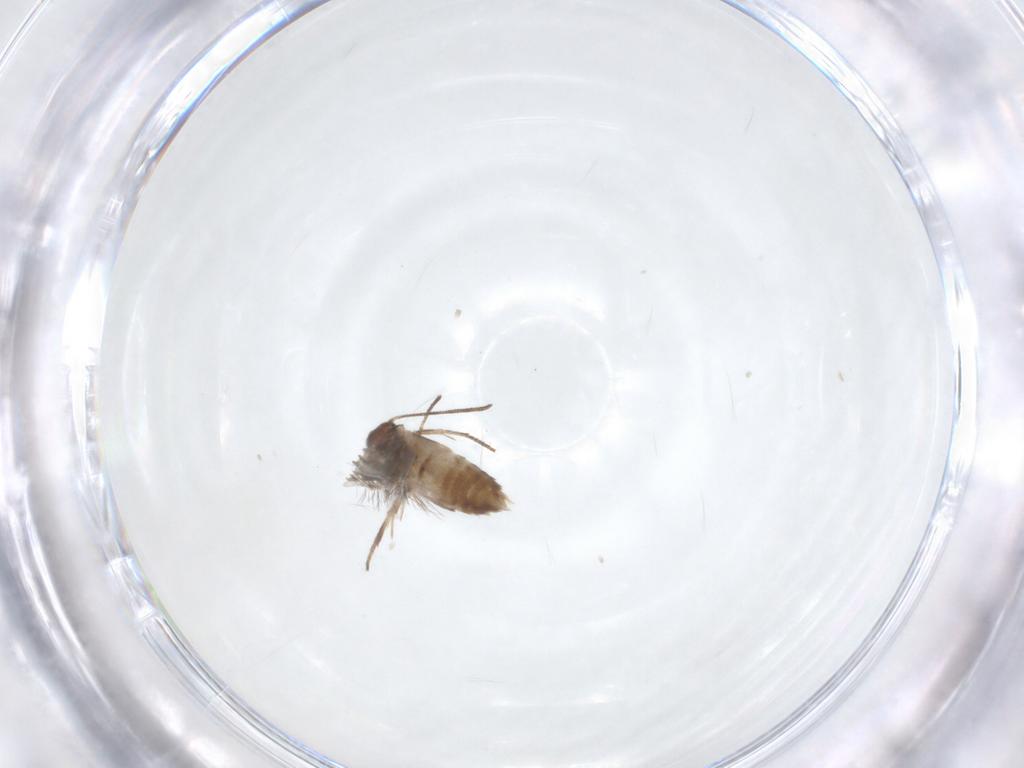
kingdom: Animalia
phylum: Arthropoda
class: Insecta
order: Lepidoptera
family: Lyonetiidae
